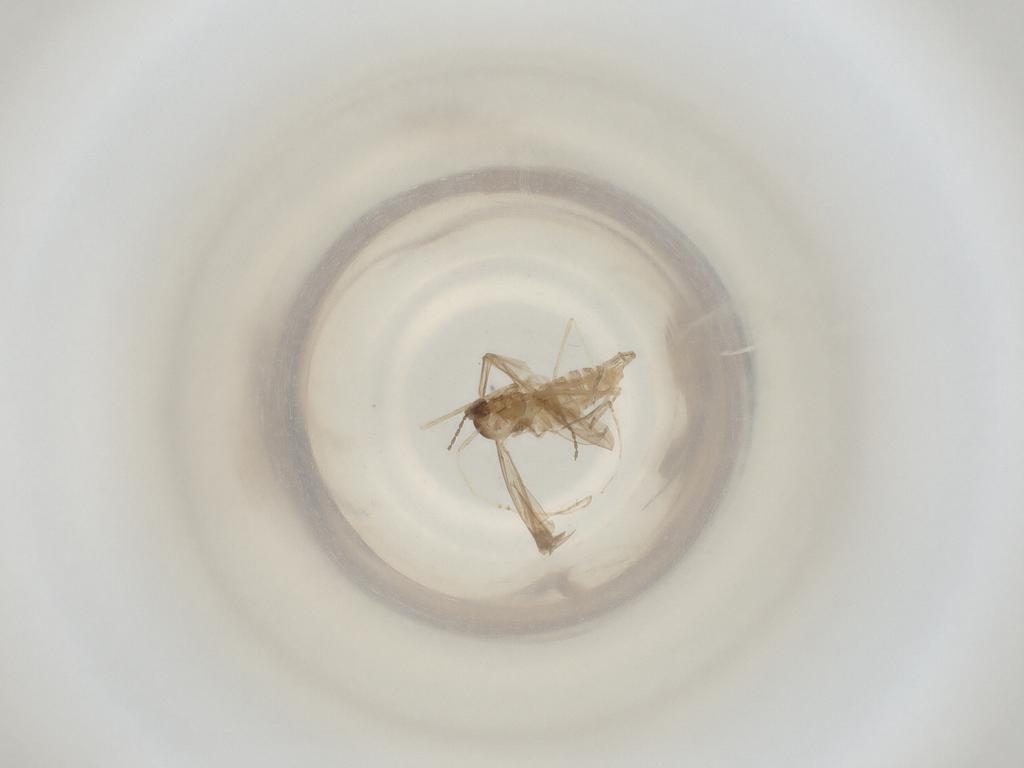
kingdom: Animalia
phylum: Arthropoda
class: Insecta
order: Diptera
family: Cecidomyiidae
